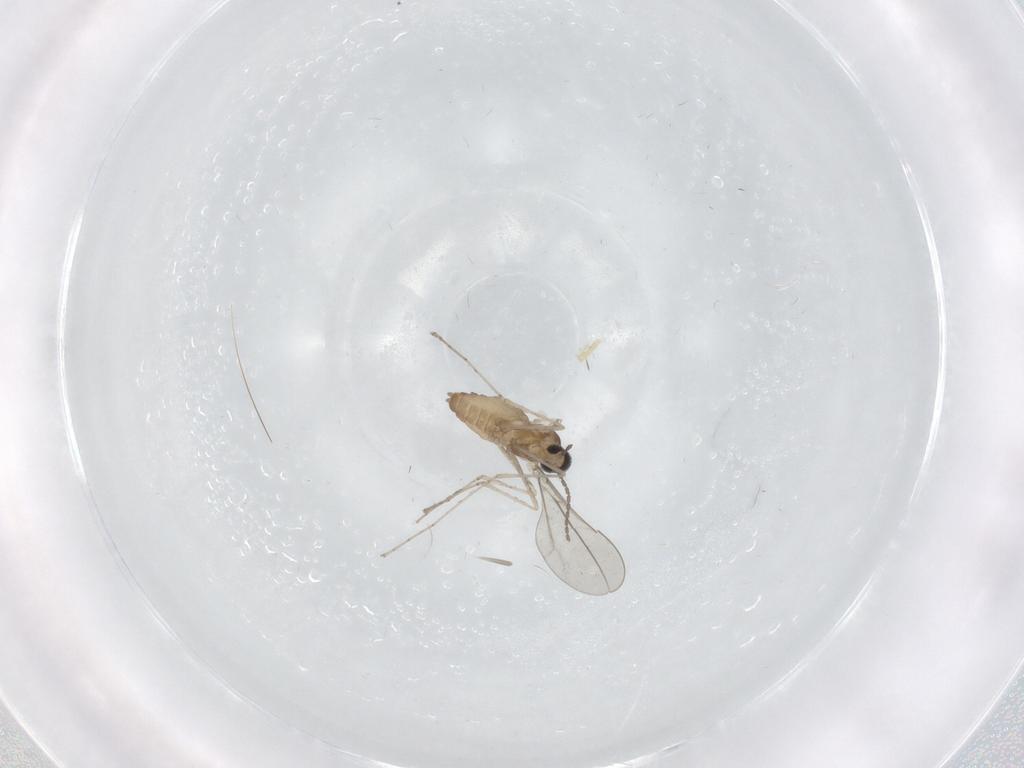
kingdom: Animalia
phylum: Arthropoda
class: Insecta
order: Diptera
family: Cecidomyiidae
